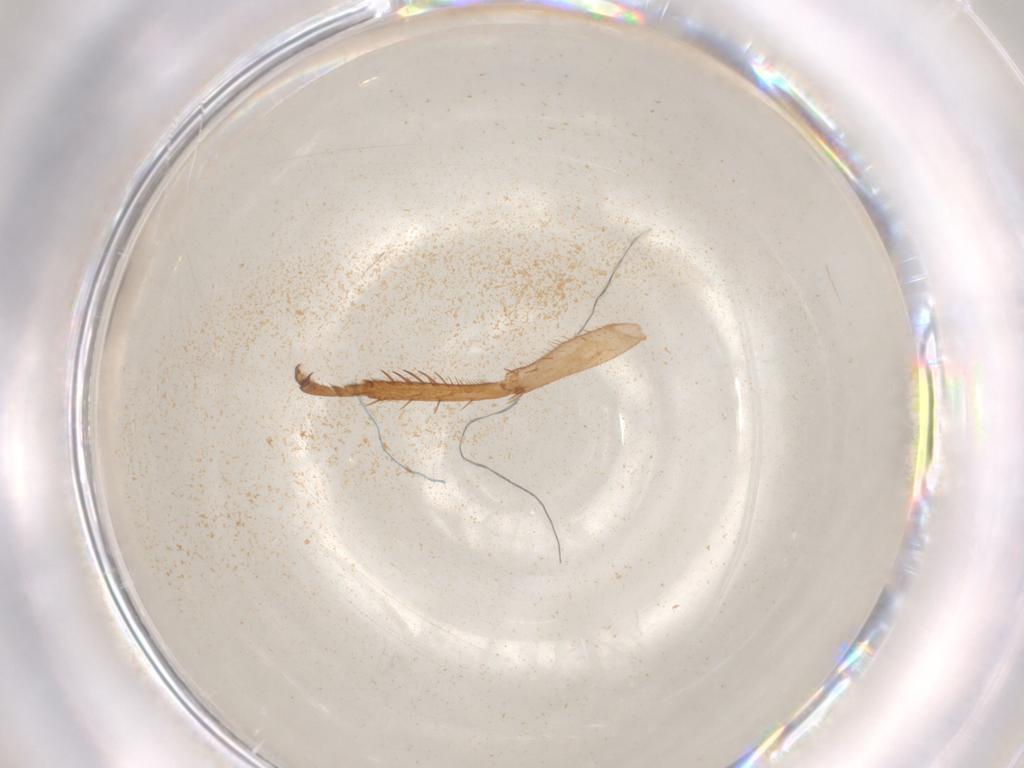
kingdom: Animalia
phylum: Arthropoda
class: Insecta
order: Hemiptera
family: Cicadellidae
